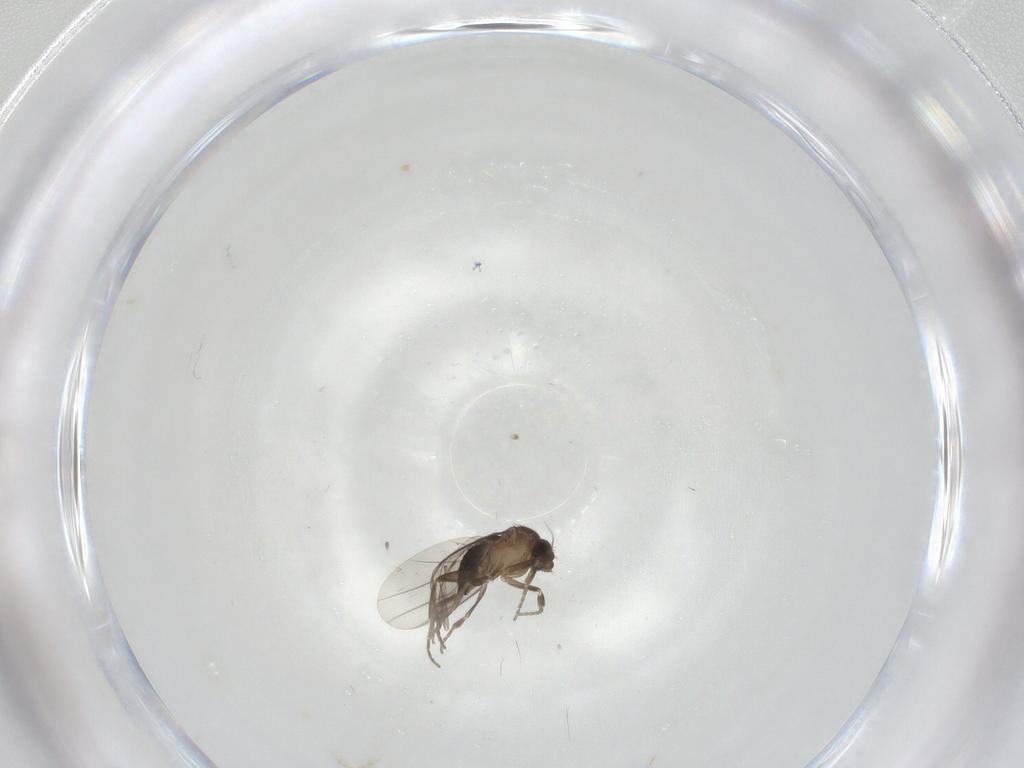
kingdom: Animalia
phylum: Arthropoda
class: Insecta
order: Diptera
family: Phoridae
